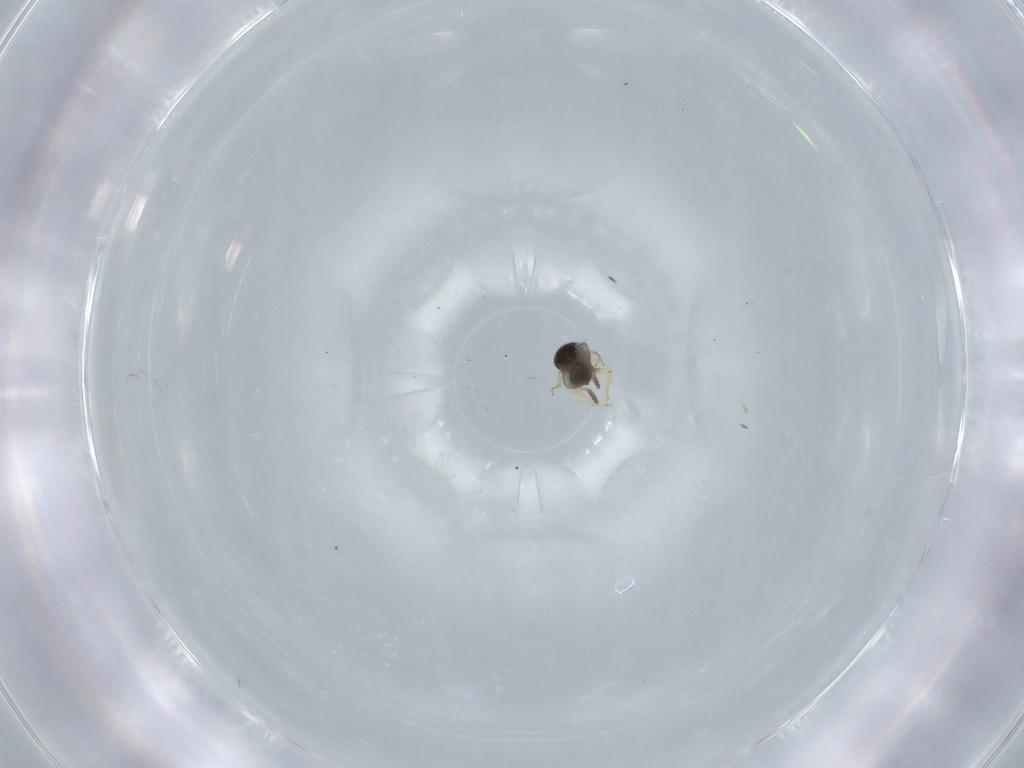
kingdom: Animalia
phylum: Arthropoda
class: Insecta
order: Hymenoptera
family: Scelionidae
